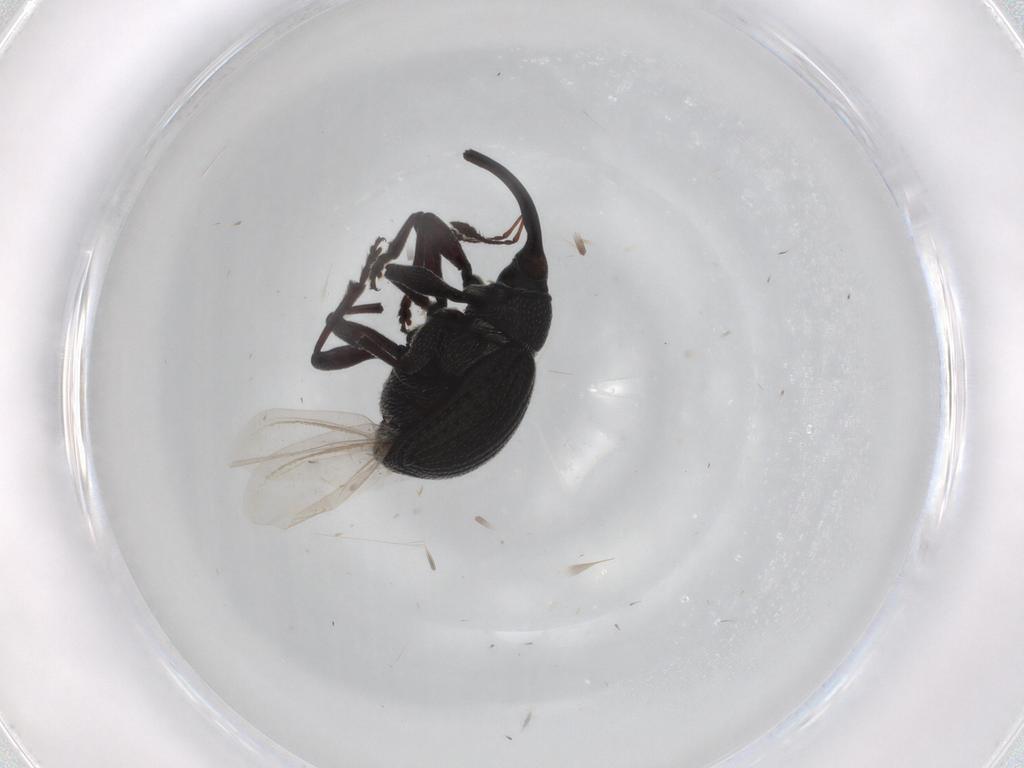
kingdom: Animalia
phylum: Arthropoda
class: Insecta
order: Coleoptera
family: Brentidae
